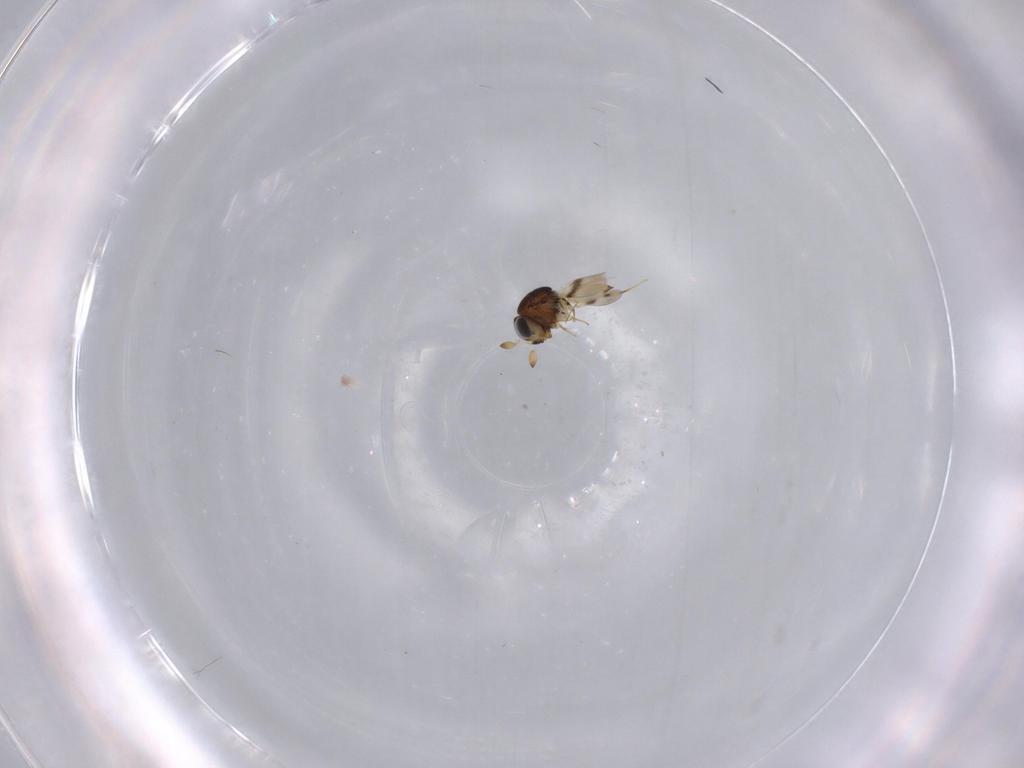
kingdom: Animalia
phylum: Arthropoda
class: Insecta
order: Hymenoptera
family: Scelionidae
